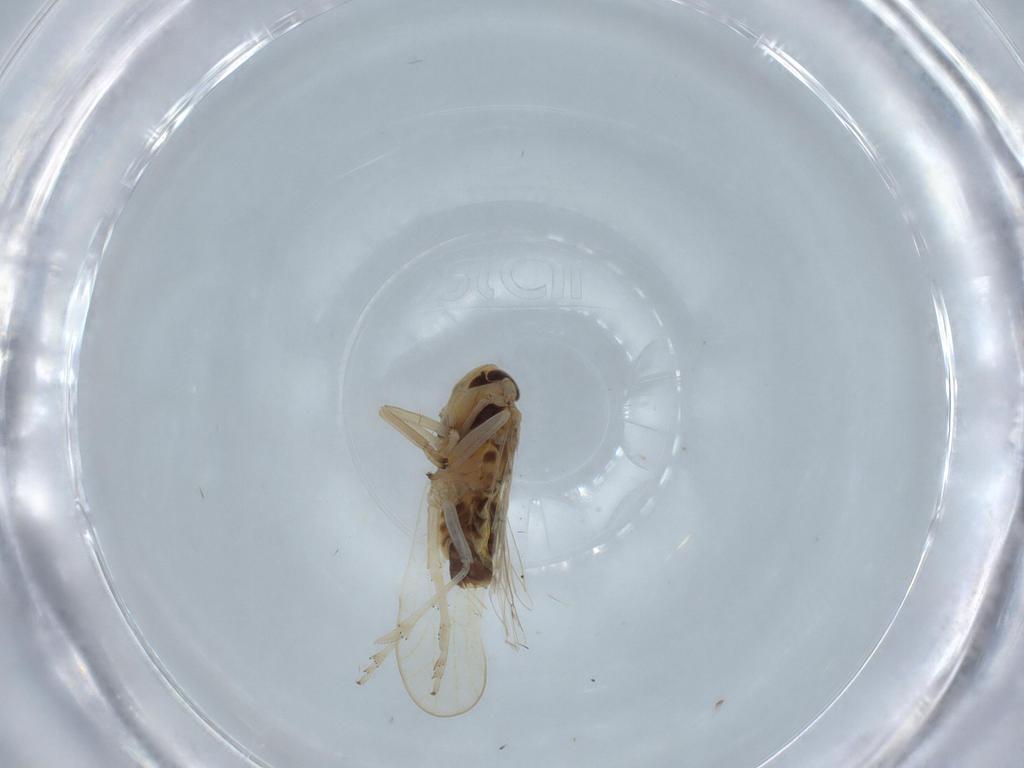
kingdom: Animalia
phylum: Arthropoda
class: Insecta
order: Hemiptera
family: Delphacidae
